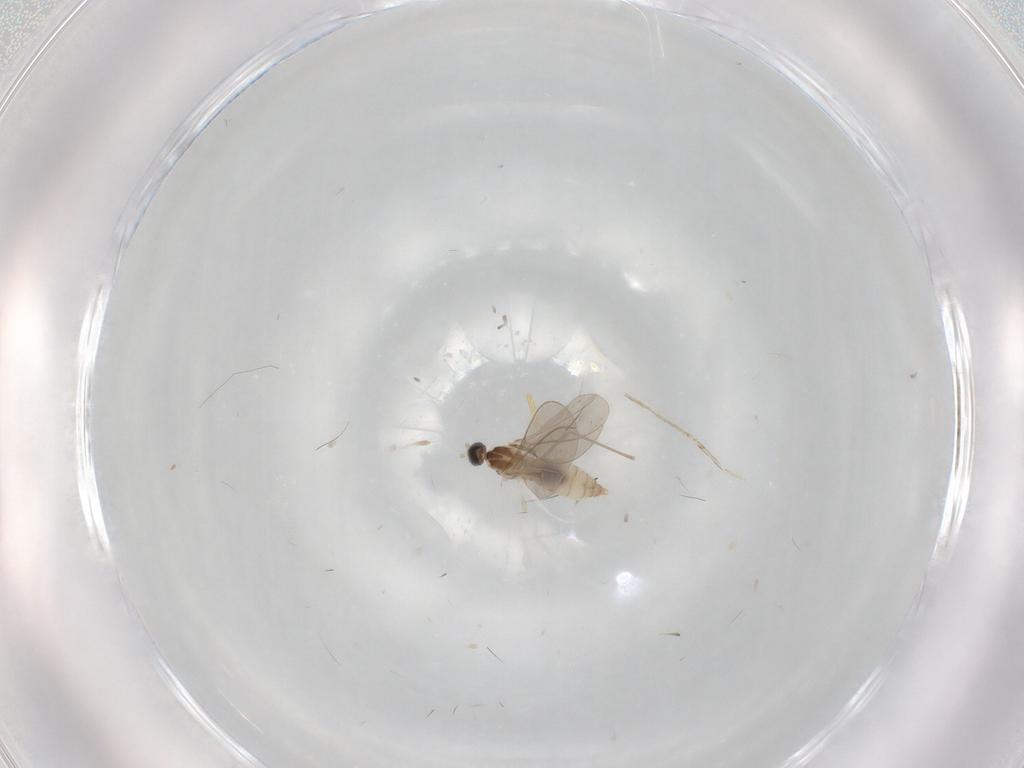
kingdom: Animalia
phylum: Arthropoda
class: Insecta
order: Diptera
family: Cecidomyiidae
